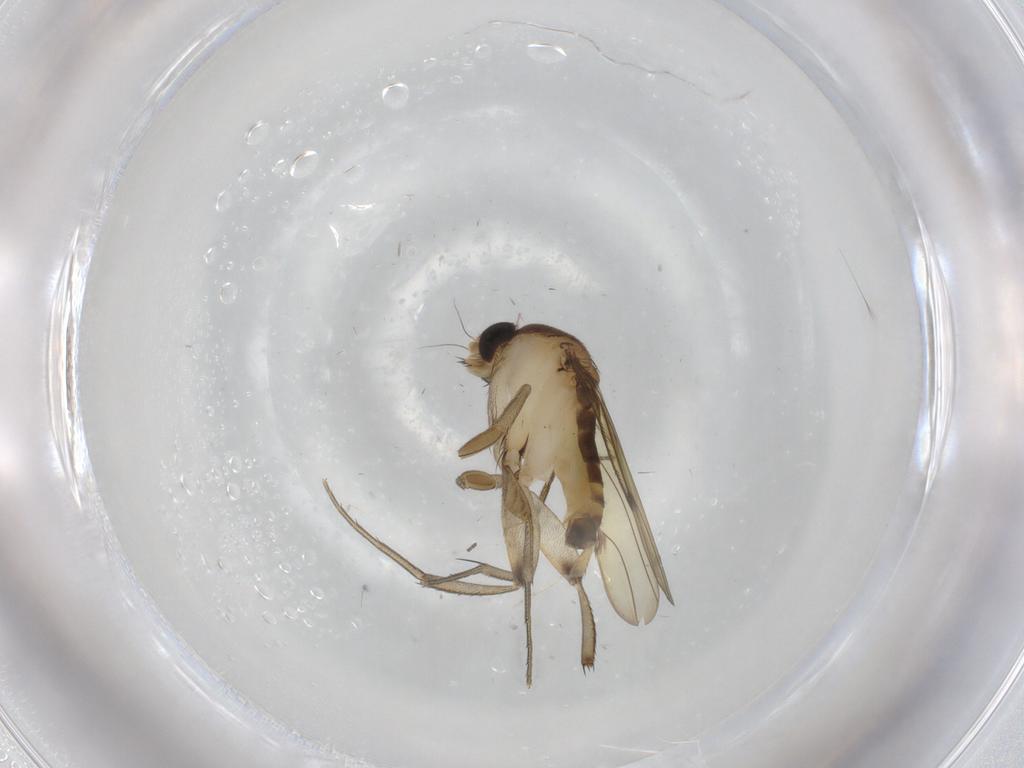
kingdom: Animalia
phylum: Arthropoda
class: Insecta
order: Diptera
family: Phoridae
